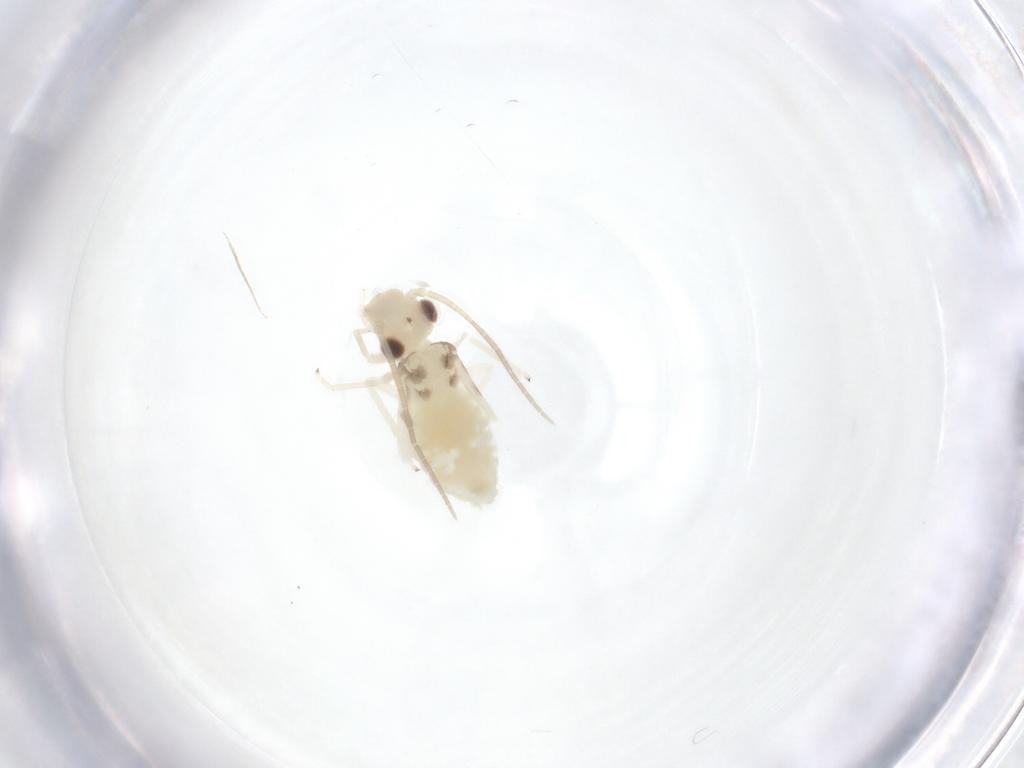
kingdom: Animalia
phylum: Arthropoda
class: Insecta
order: Psocodea
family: Caeciliusidae
